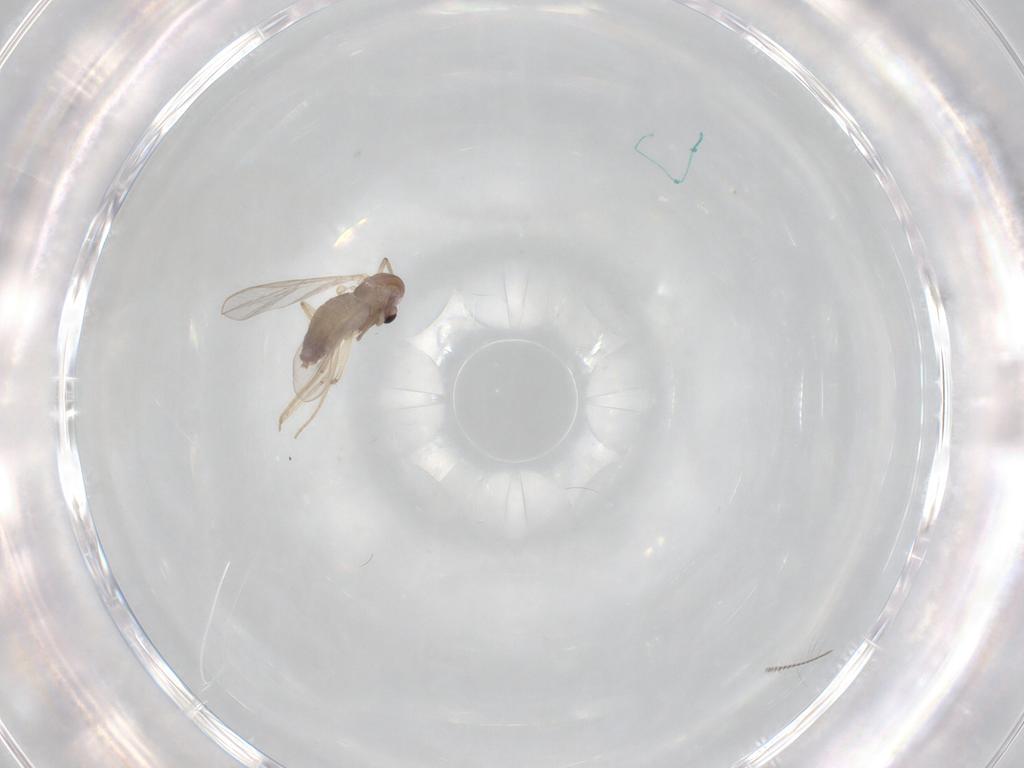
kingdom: Animalia
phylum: Arthropoda
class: Insecta
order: Diptera
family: Chironomidae
